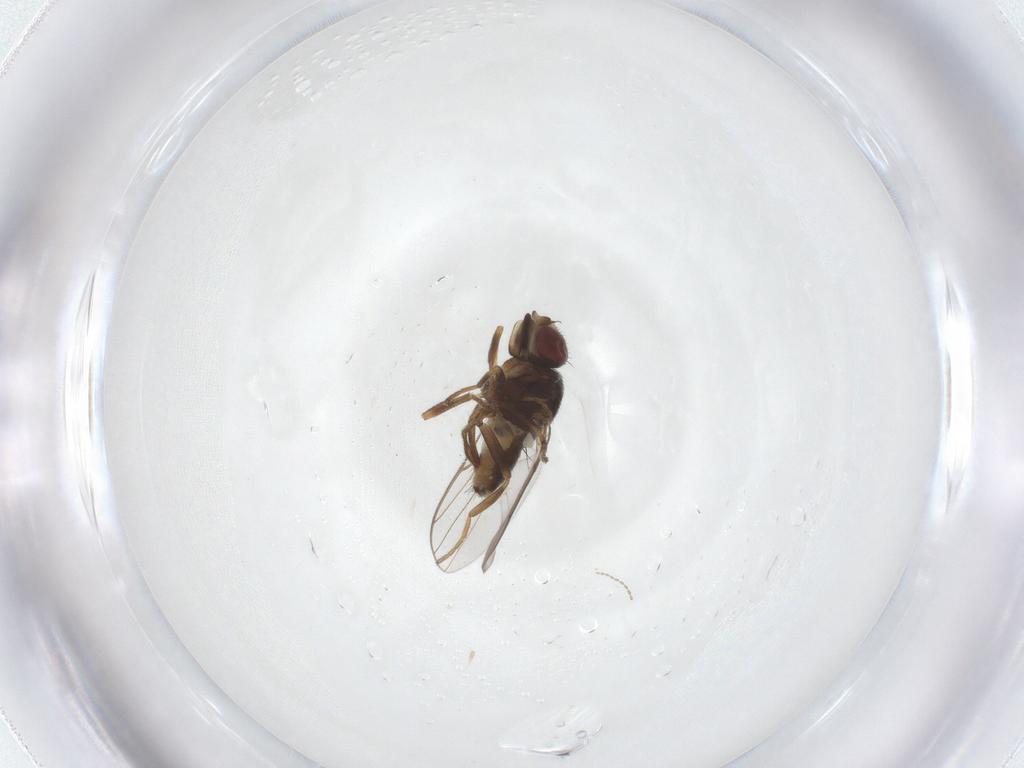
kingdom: Animalia
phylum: Arthropoda
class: Insecta
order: Diptera
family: Chloropidae
